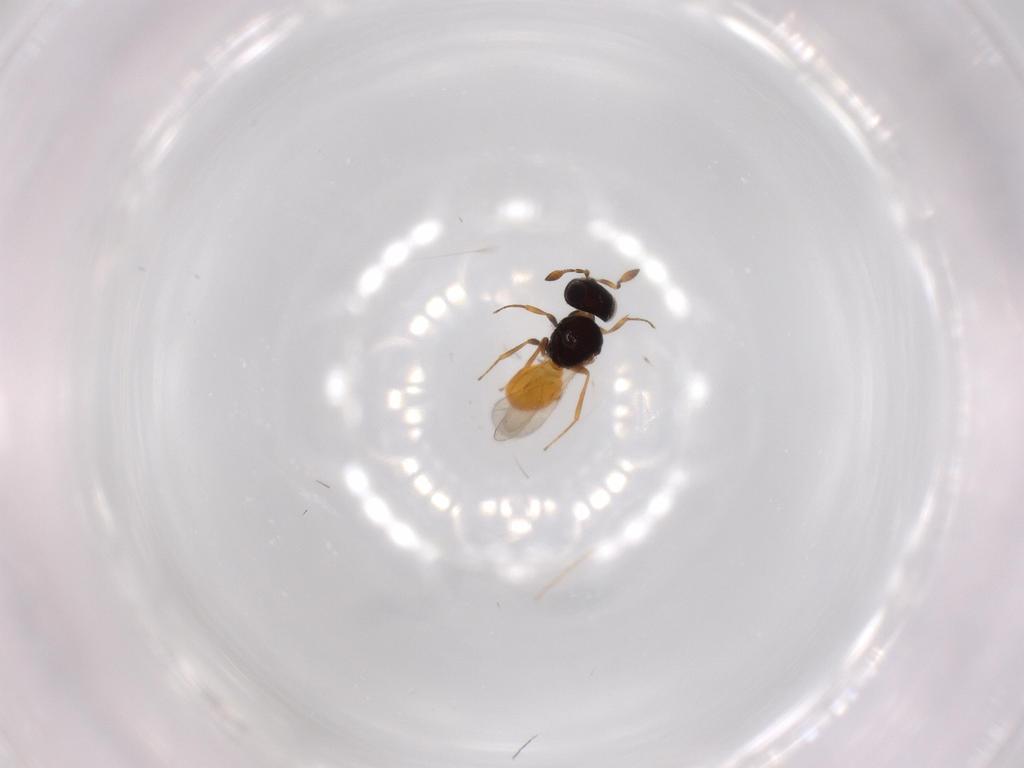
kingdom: Animalia
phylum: Arthropoda
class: Insecta
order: Hymenoptera
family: Scelionidae
